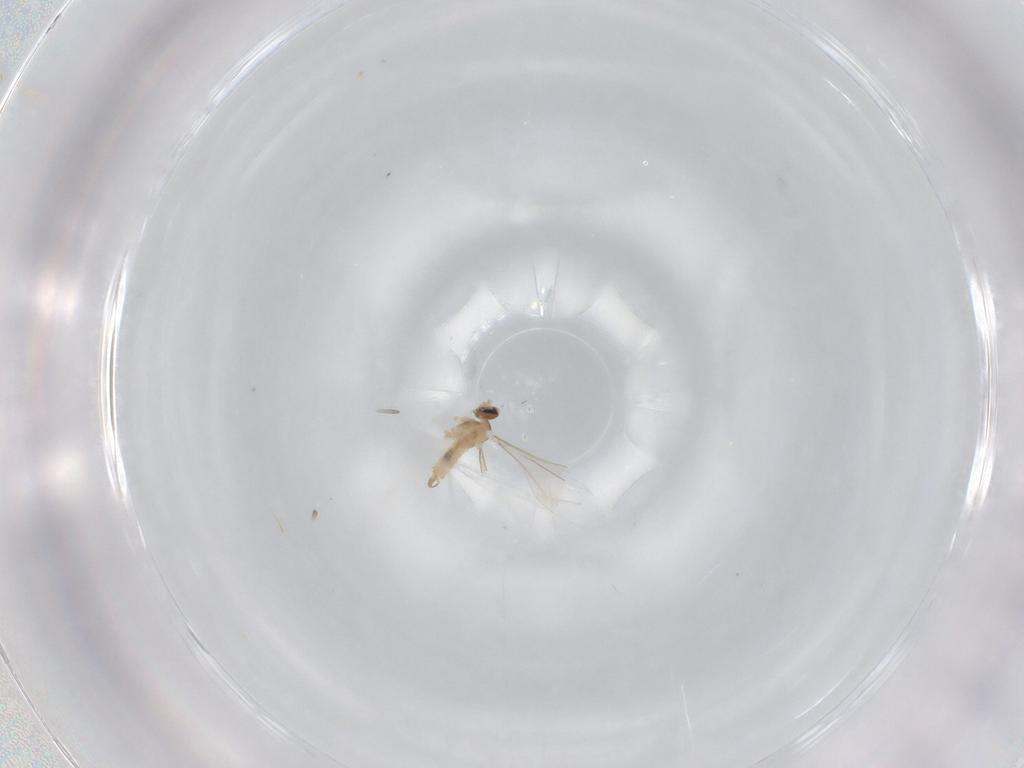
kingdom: Animalia
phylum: Arthropoda
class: Insecta
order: Diptera
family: Cecidomyiidae
